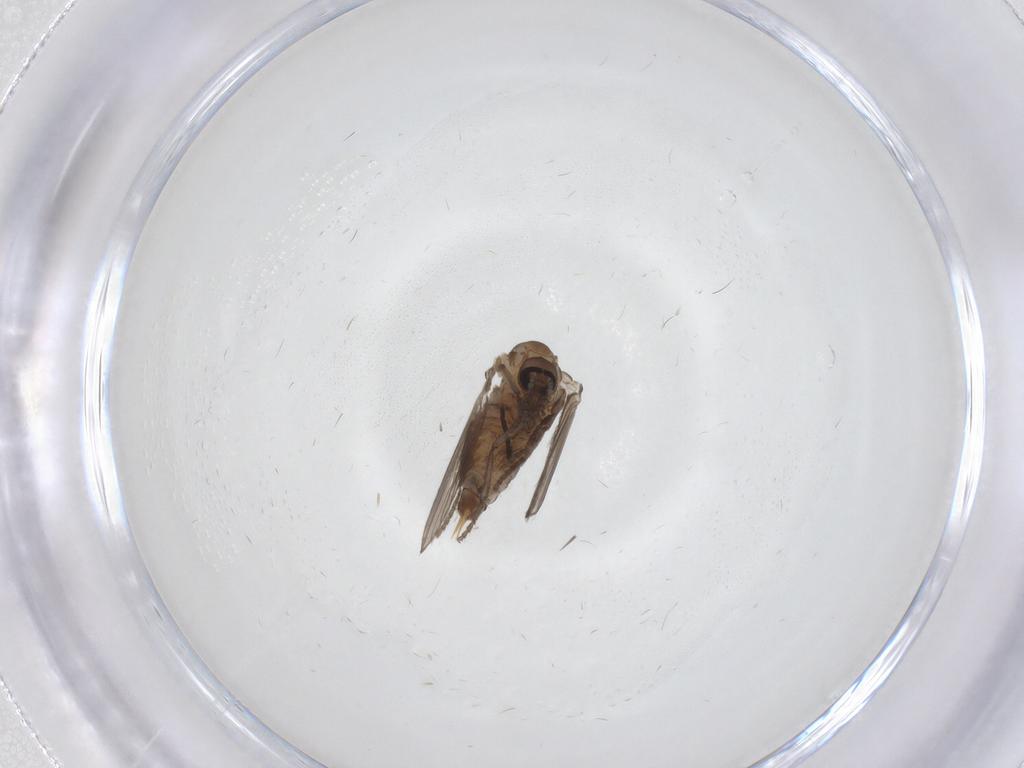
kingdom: Animalia
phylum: Arthropoda
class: Insecta
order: Diptera
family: Psychodidae
